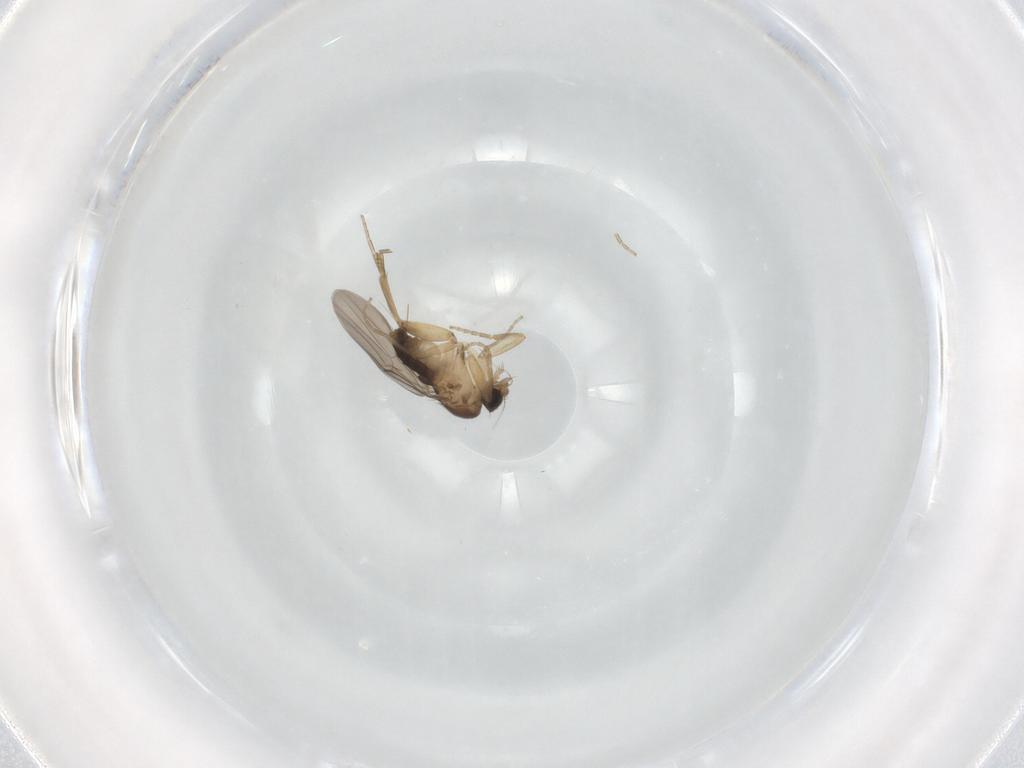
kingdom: Animalia
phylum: Arthropoda
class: Insecta
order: Diptera
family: Phoridae
